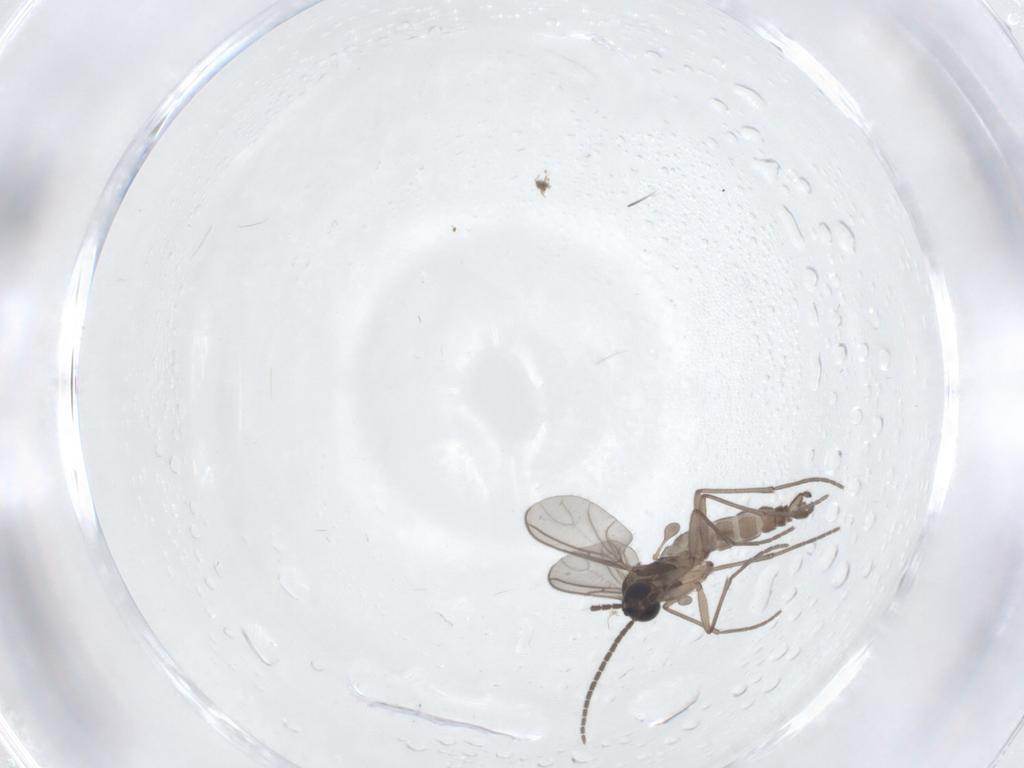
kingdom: Animalia
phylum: Arthropoda
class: Insecta
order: Diptera
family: Sciaridae
